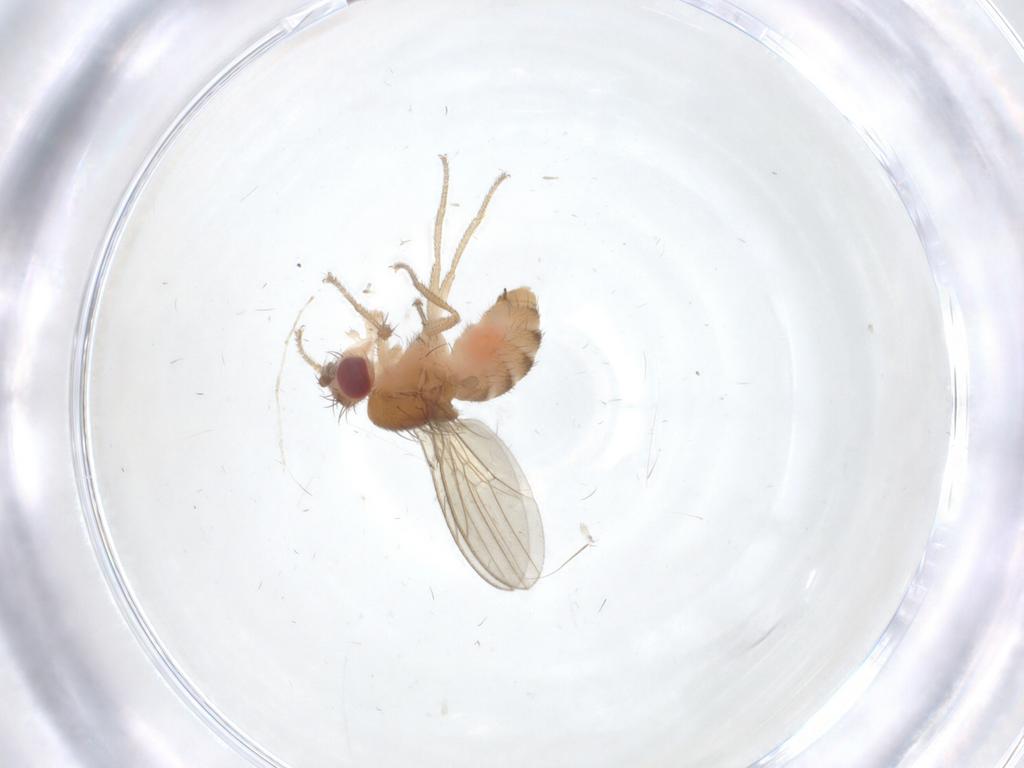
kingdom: Animalia
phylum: Arthropoda
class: Insecta
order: Diptera
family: Drosophilidae
